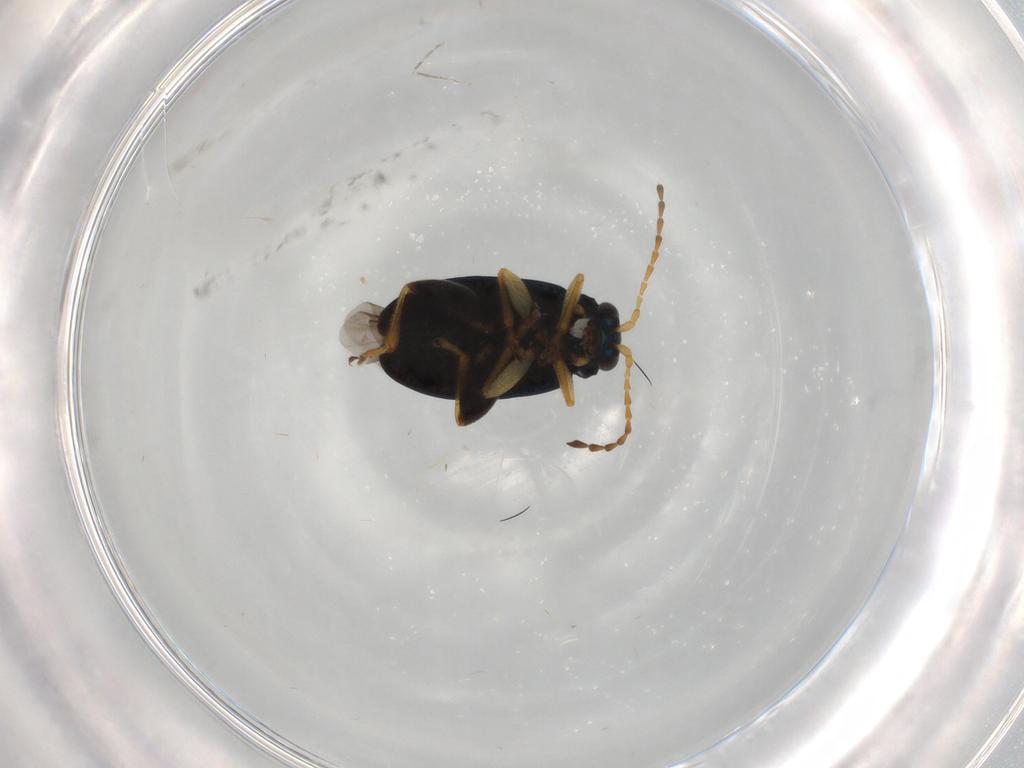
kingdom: Animalia
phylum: Arthropoda
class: Insecta
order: Coleoptera
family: Chrysomelidae
